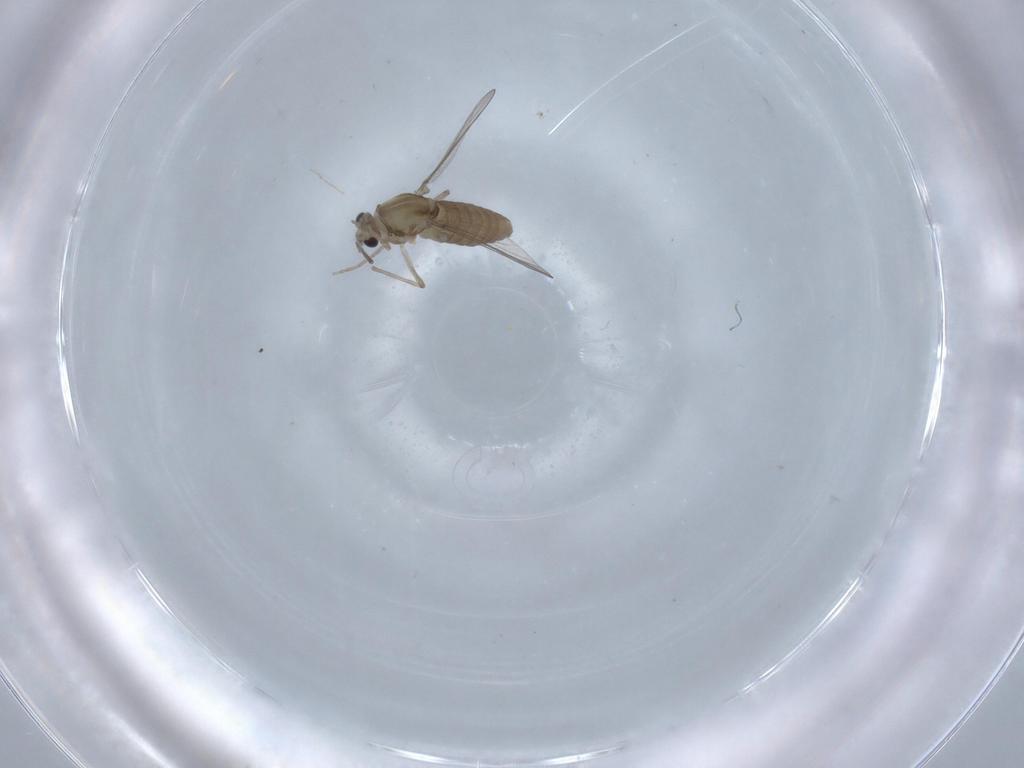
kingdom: Animalia
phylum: Arthropoda
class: Insecta
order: Diptera
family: Chironomidae
